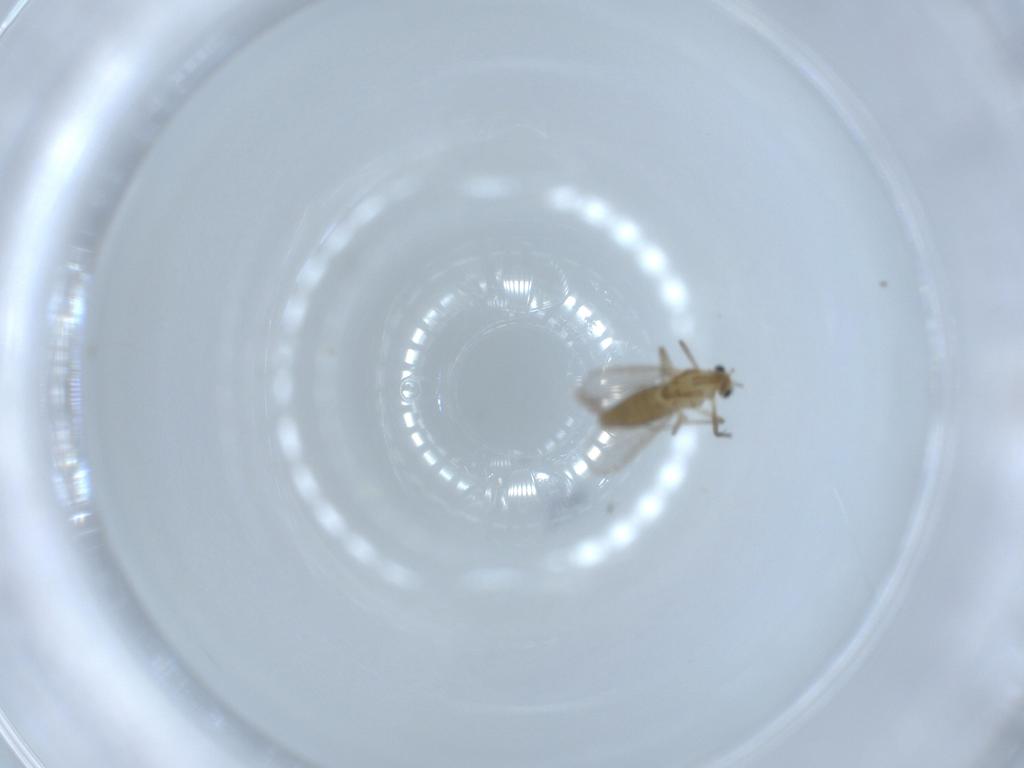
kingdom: Animalia
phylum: Arthropoda
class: Insecta
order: Diptera
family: Chironomidae
